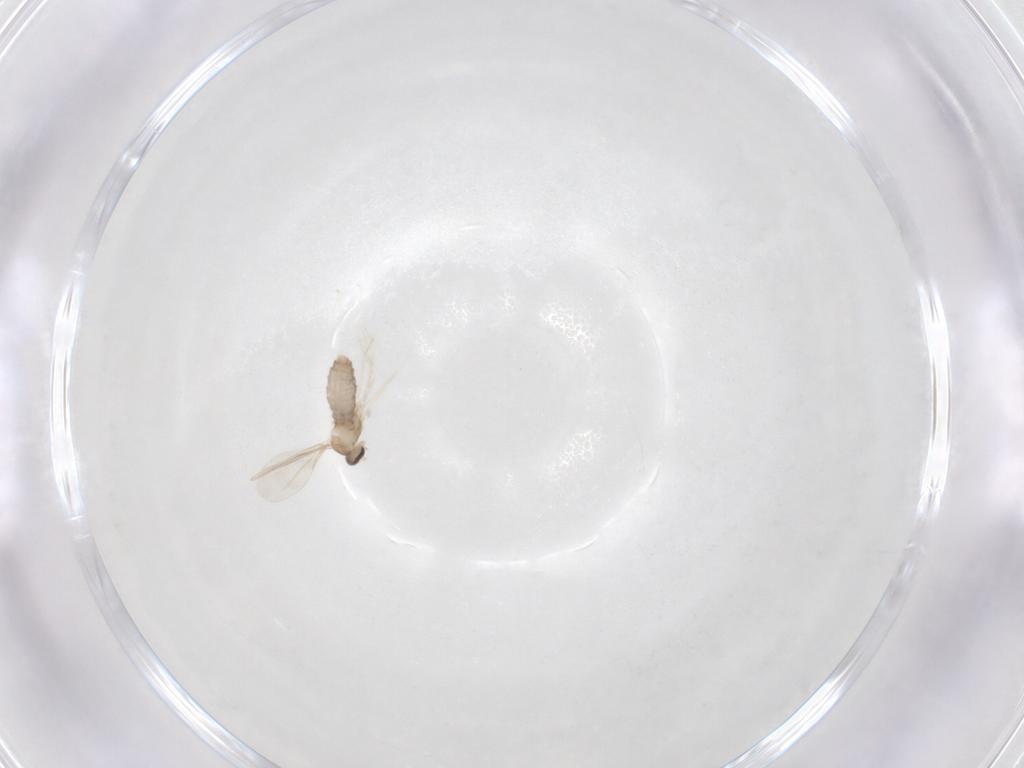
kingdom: Animalia
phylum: Arthropoda
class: Insecta
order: Diptera
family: Cecidomyiidae
